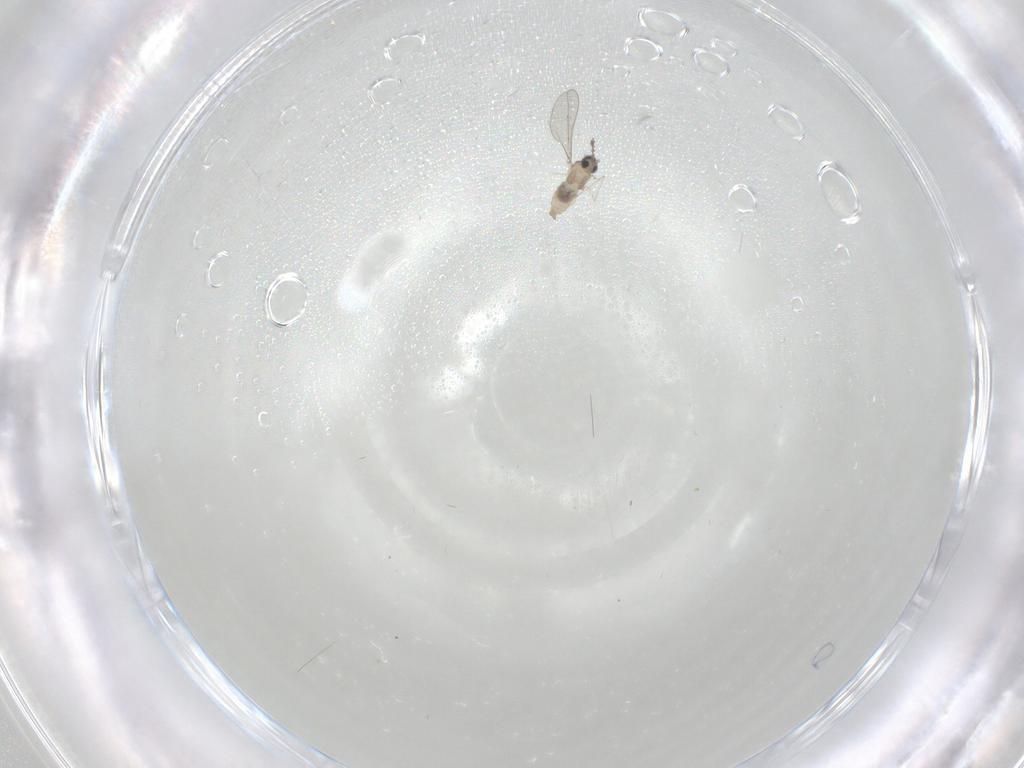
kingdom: Animalia
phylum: Arthropoda
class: Insecta
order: Diptera
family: Cecidomyiidae
